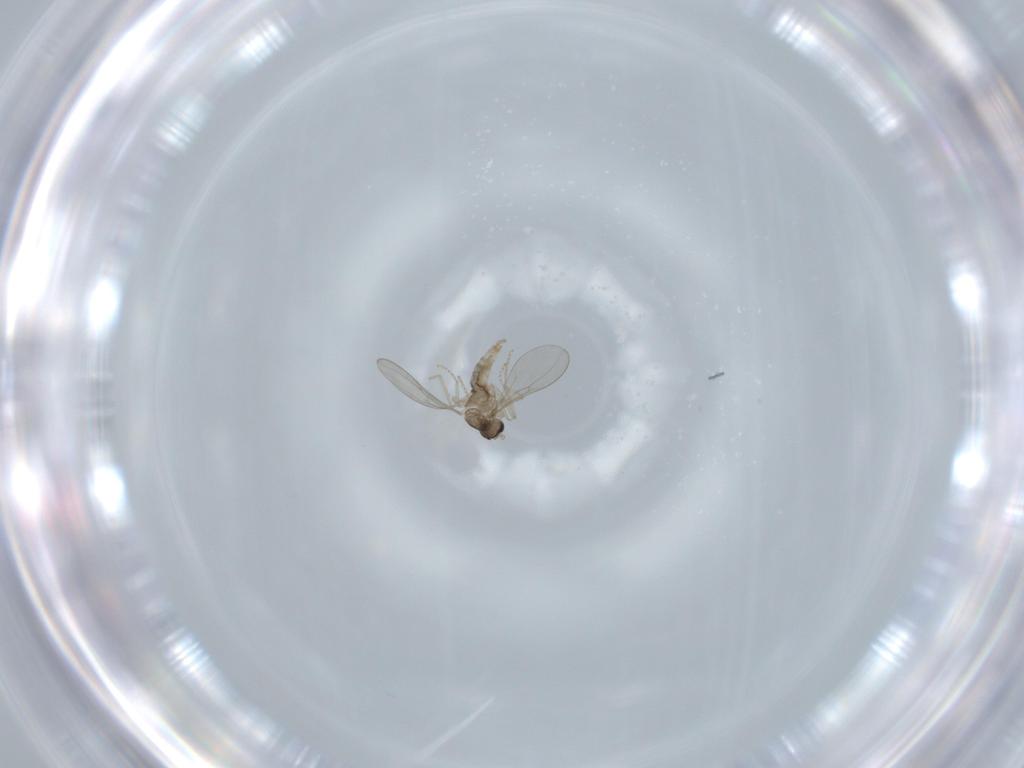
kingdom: Animalia
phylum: Arthropoda
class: Insecta
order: Diptera
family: Cecidomyiidae
